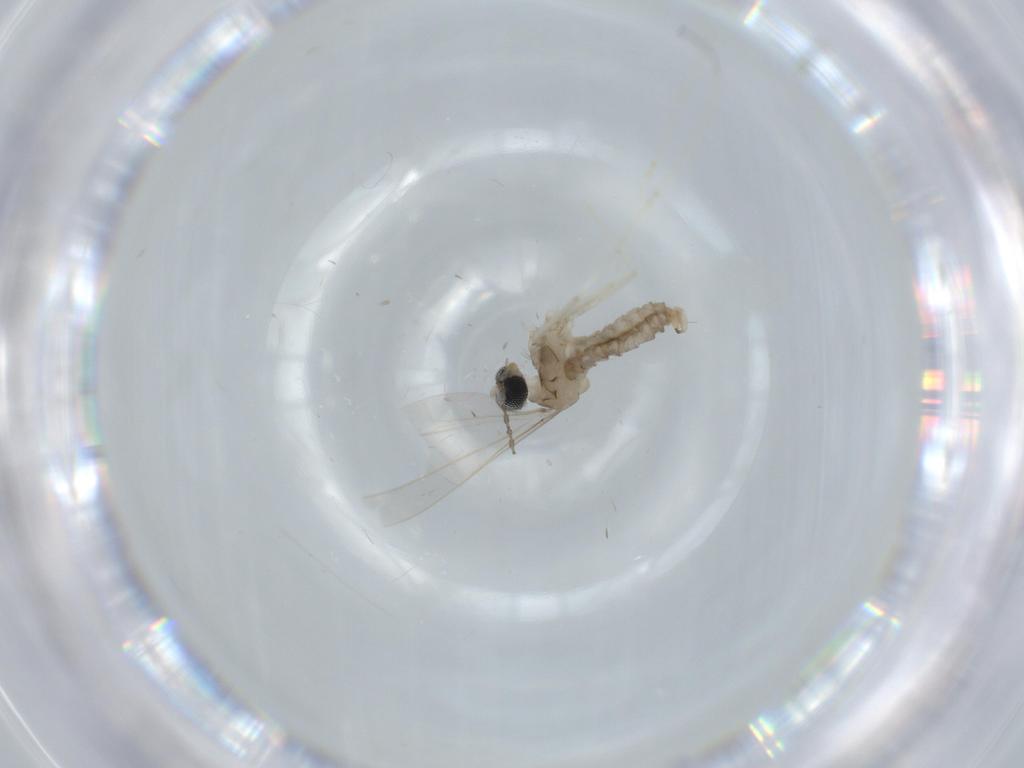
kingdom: Animalia
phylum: Arthropoda
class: Insecta
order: Diptera
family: Cecidomyiidae
